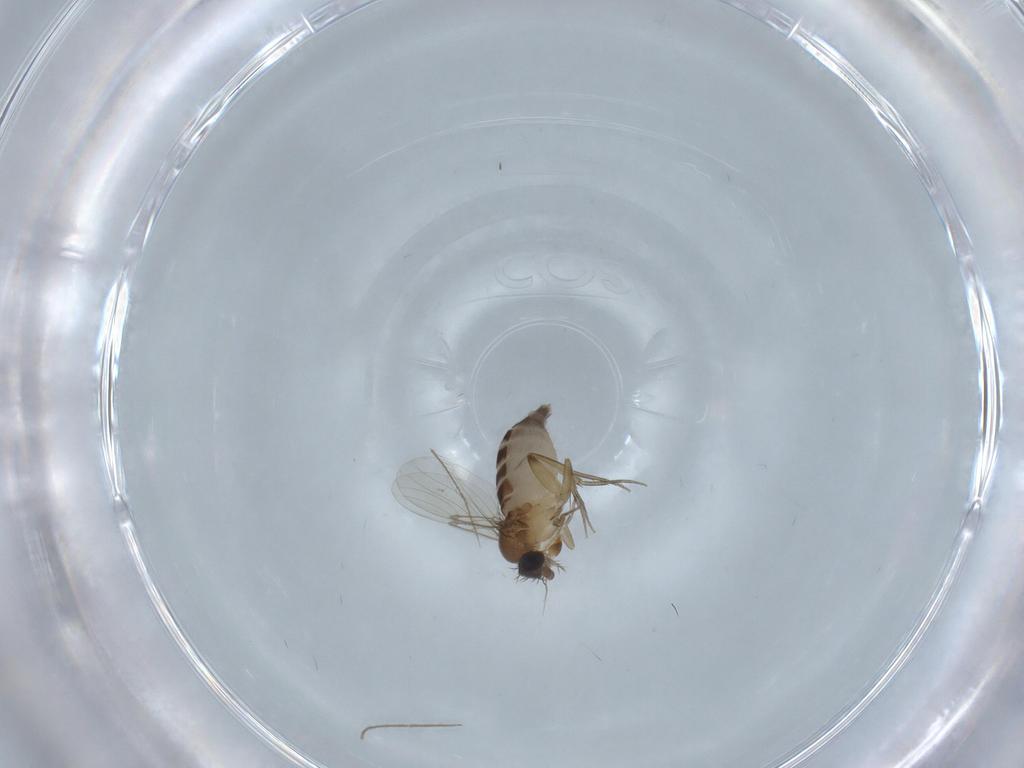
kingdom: Animalia
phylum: Arthropoda
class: Insecta
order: Diptera
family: Phoridae
